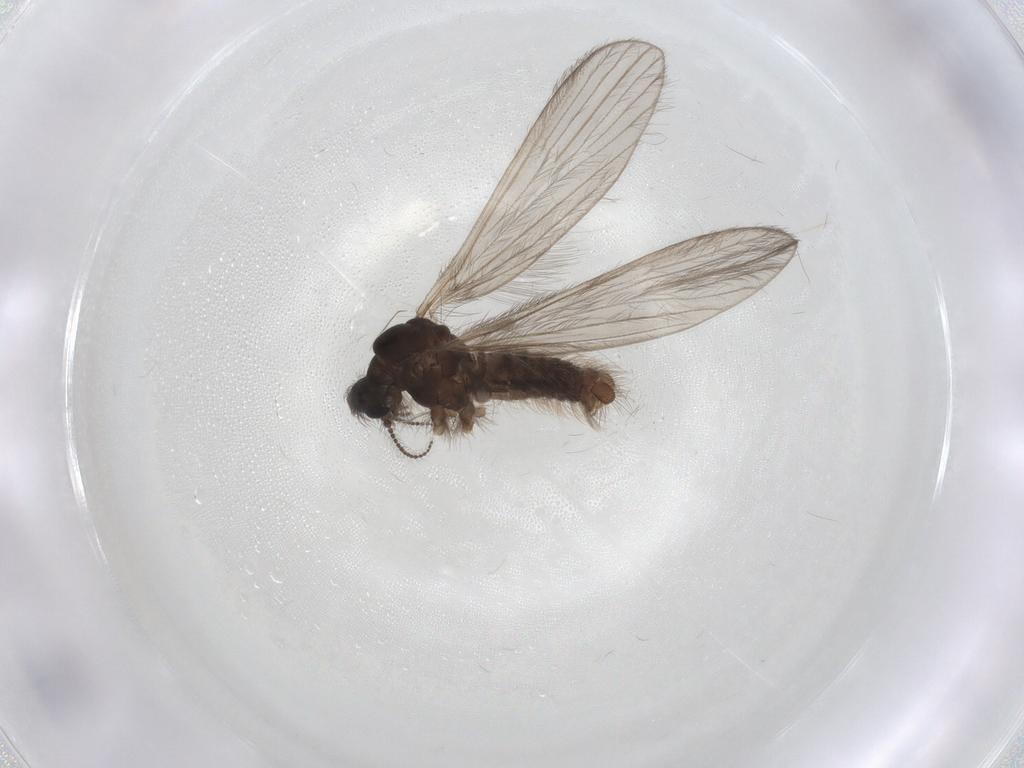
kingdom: Animalia
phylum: Arthropoda
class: Insecta
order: Diptera
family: Limoniidae
